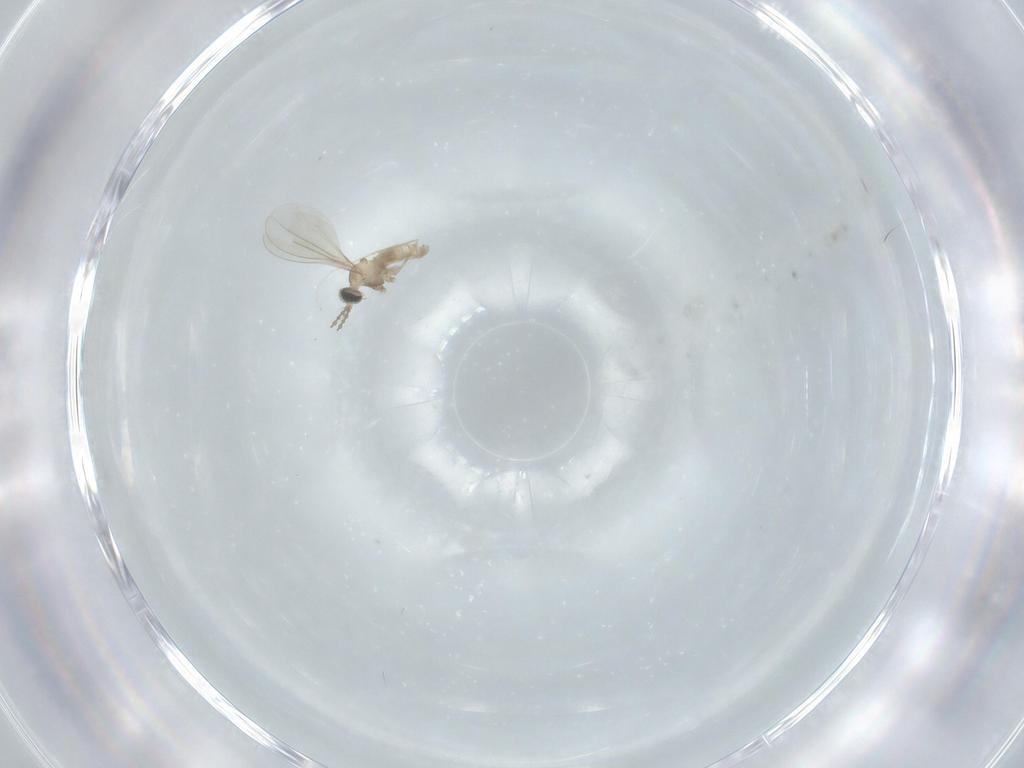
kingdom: Animalia
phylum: Arthropoda
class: Insecta
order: Diptera
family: Cecidomyiidae
